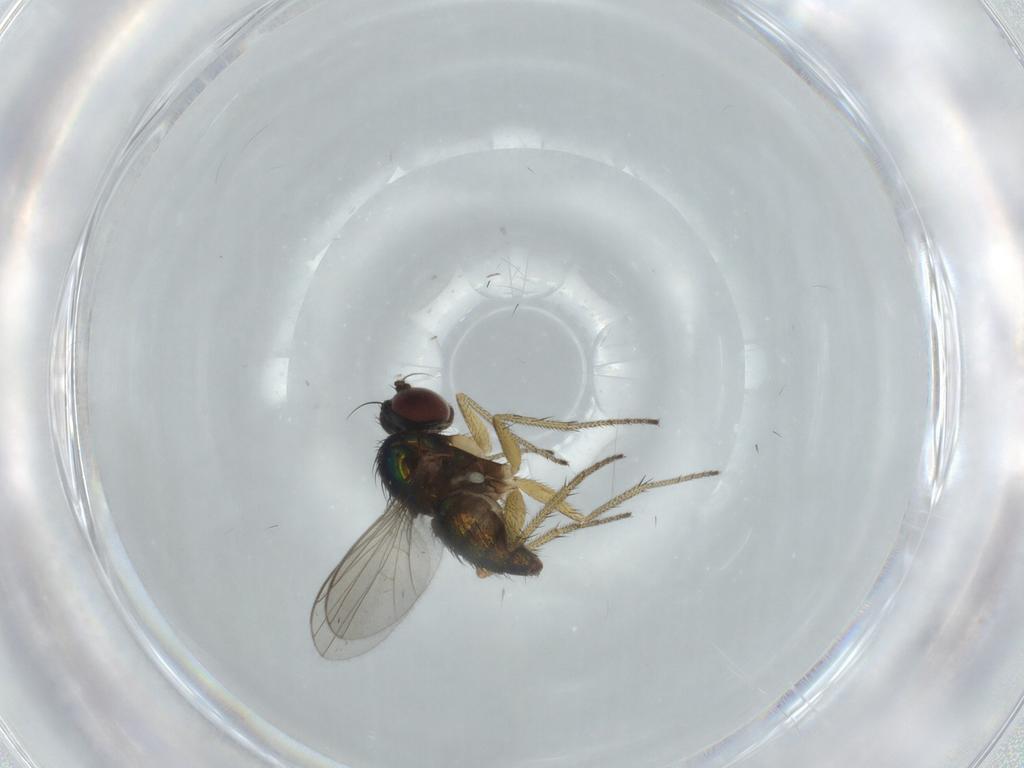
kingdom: Animalia
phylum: Arthropoda
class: Insecta
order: Diptera
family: Dolichopodidae
